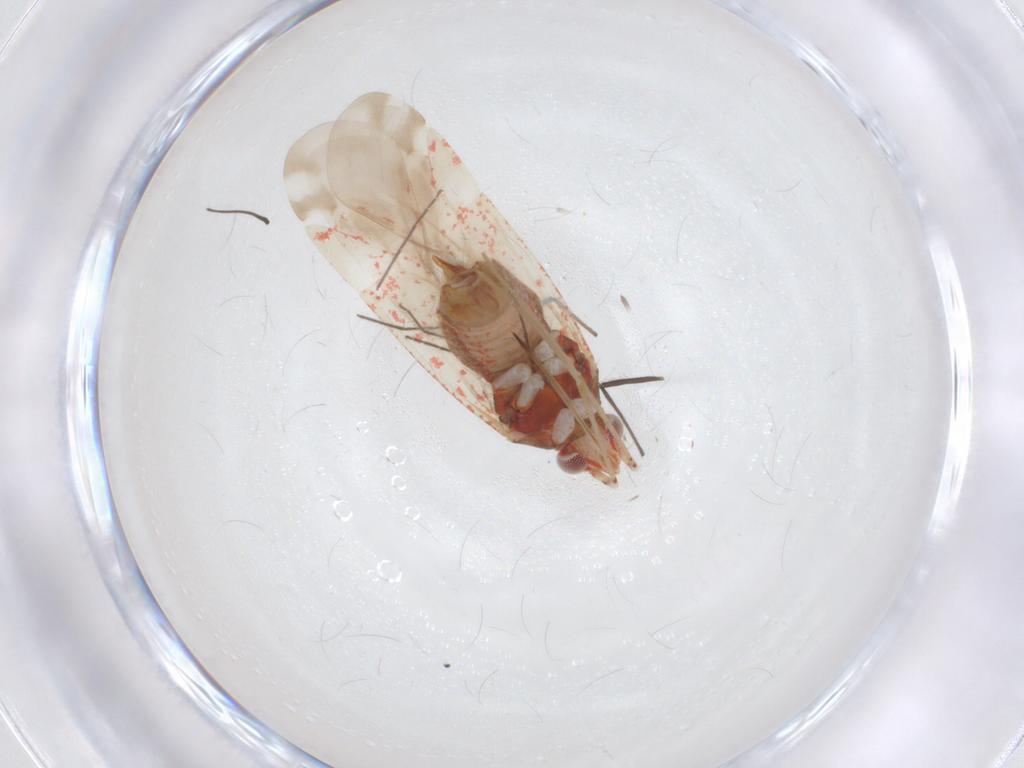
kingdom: Animalia
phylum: Arthropoda
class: Insecta
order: Hemiptera
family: Miridae
